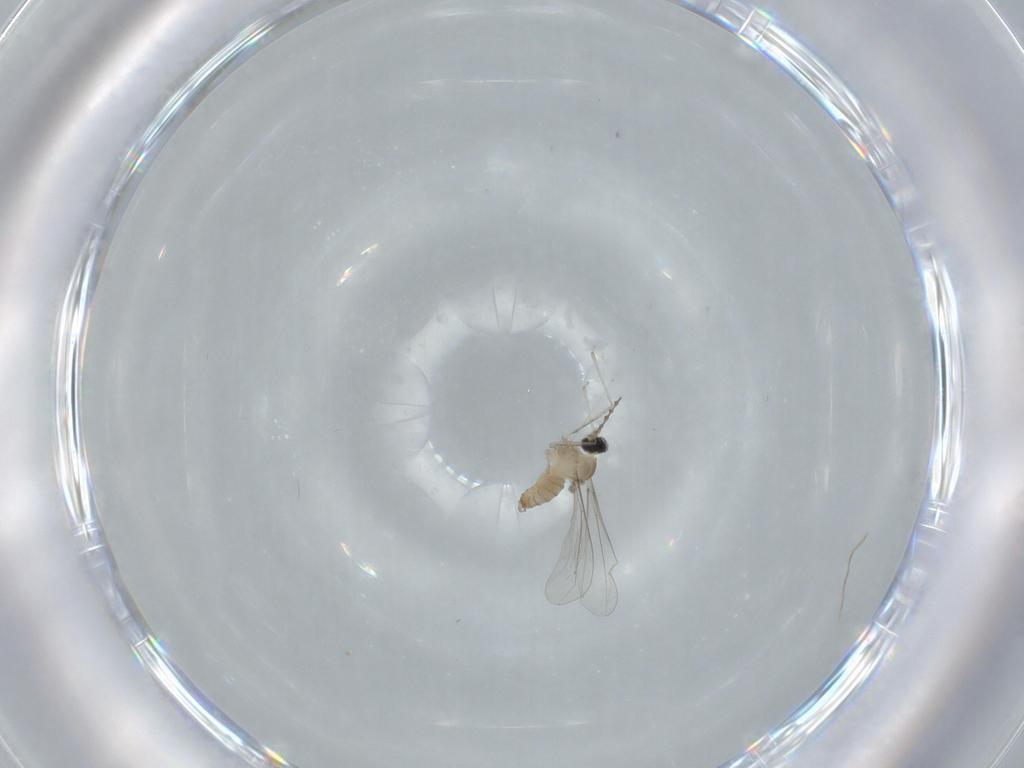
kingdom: Animalia
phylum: Arthropoda
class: Insecta
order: Diptera
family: Cecidomyiidae
